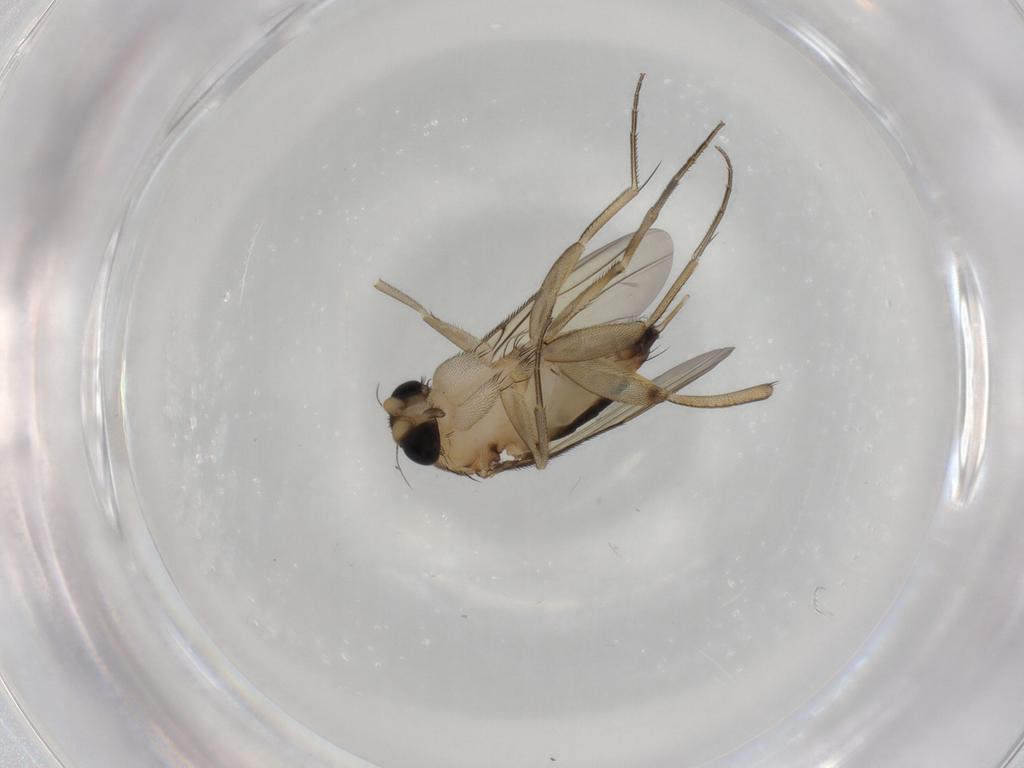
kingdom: Animalia
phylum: Arthropoda
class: Insecta
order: Diptera
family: Phoridae
